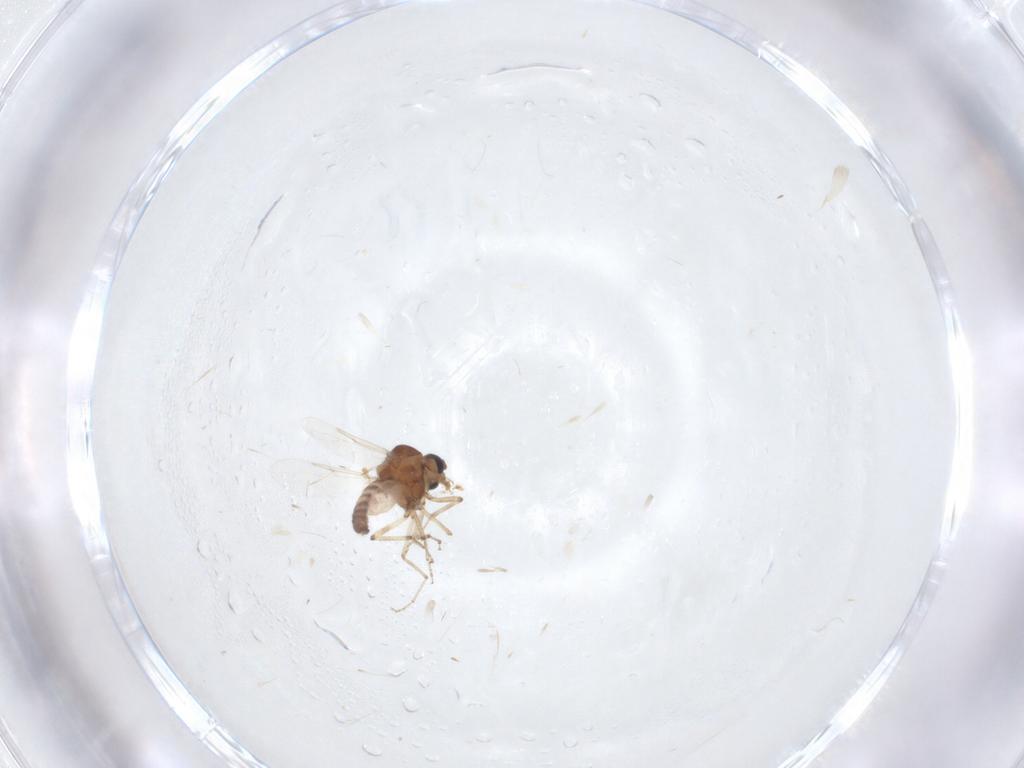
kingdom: Animalia
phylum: Arthropoda
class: Insecta
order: Diptera
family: Ceratopogonidae
